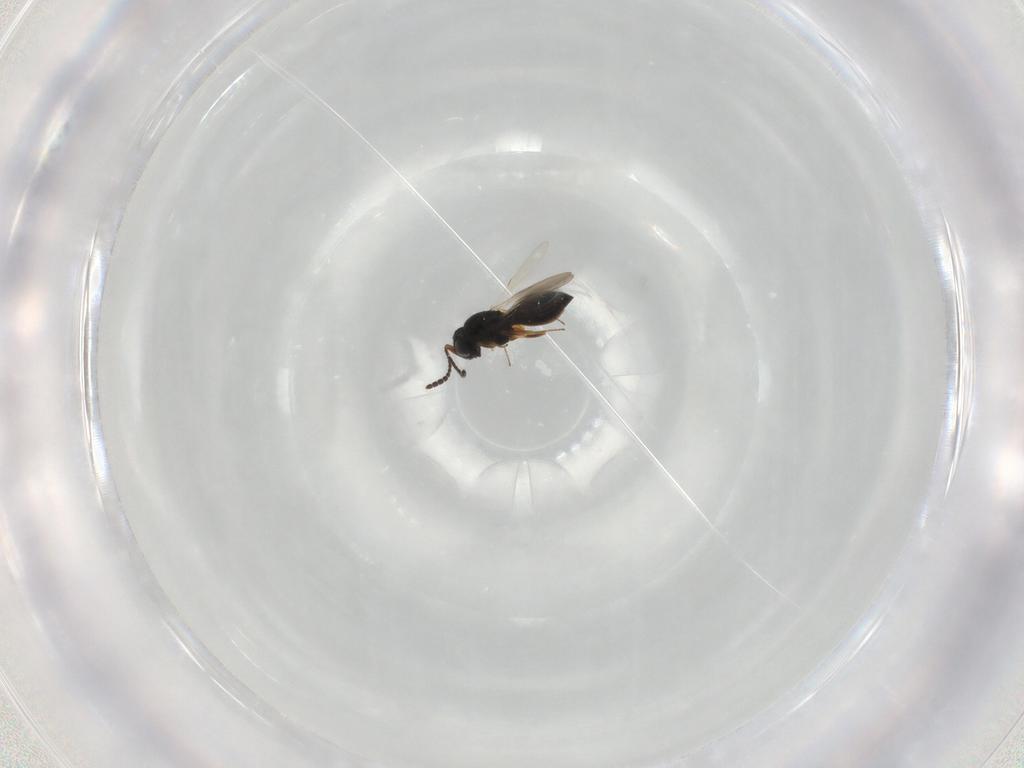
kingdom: Animalia
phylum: Arthropoda
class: Insecta
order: Hymenoptera
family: Scelionidae
